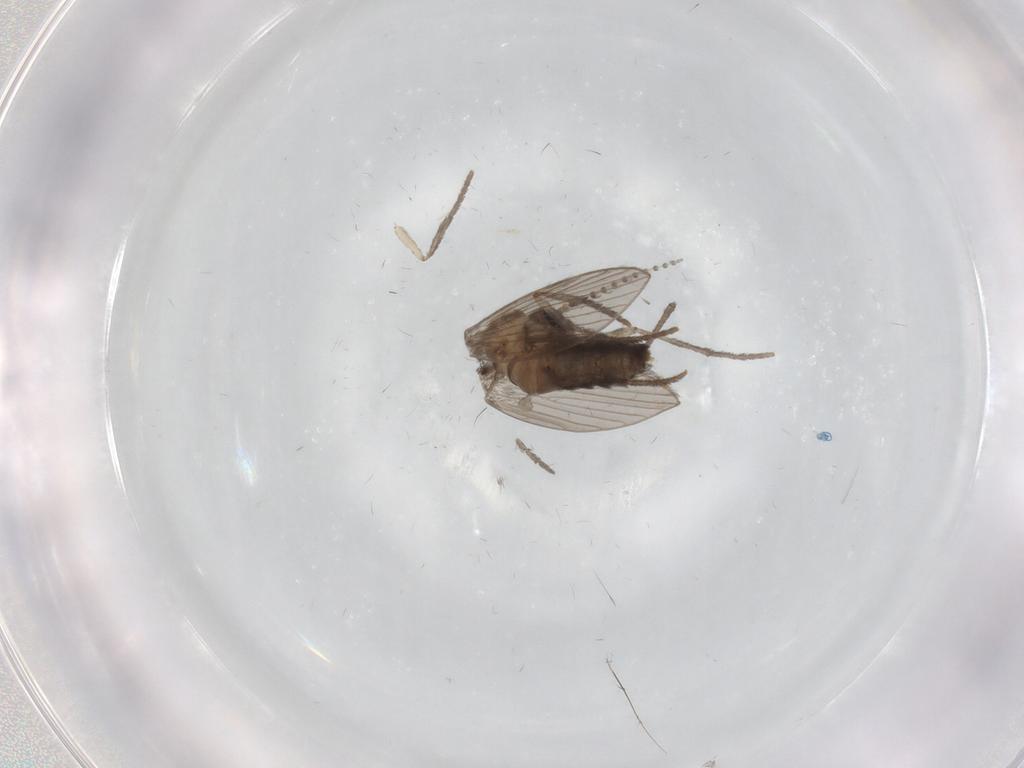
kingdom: Animalia
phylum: Arthropoda
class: Insecta
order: Diptera
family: Psychodidae
